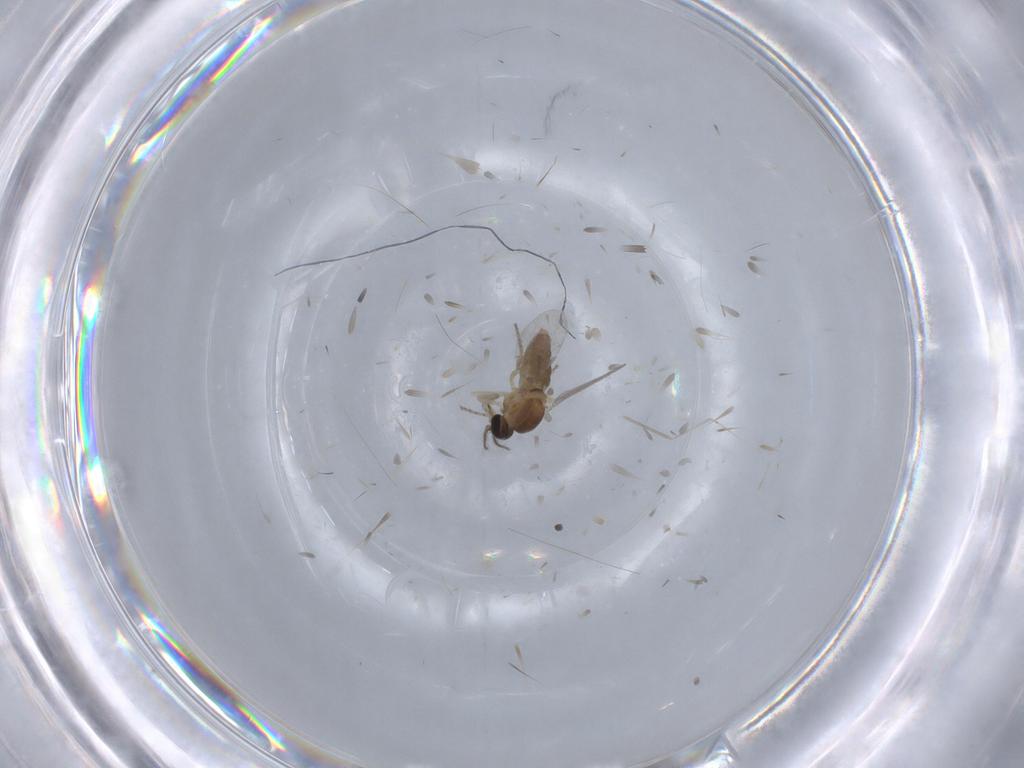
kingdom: Animalia
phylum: Arthropoda
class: Insecta
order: Diptera
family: Cecidomyiidae
